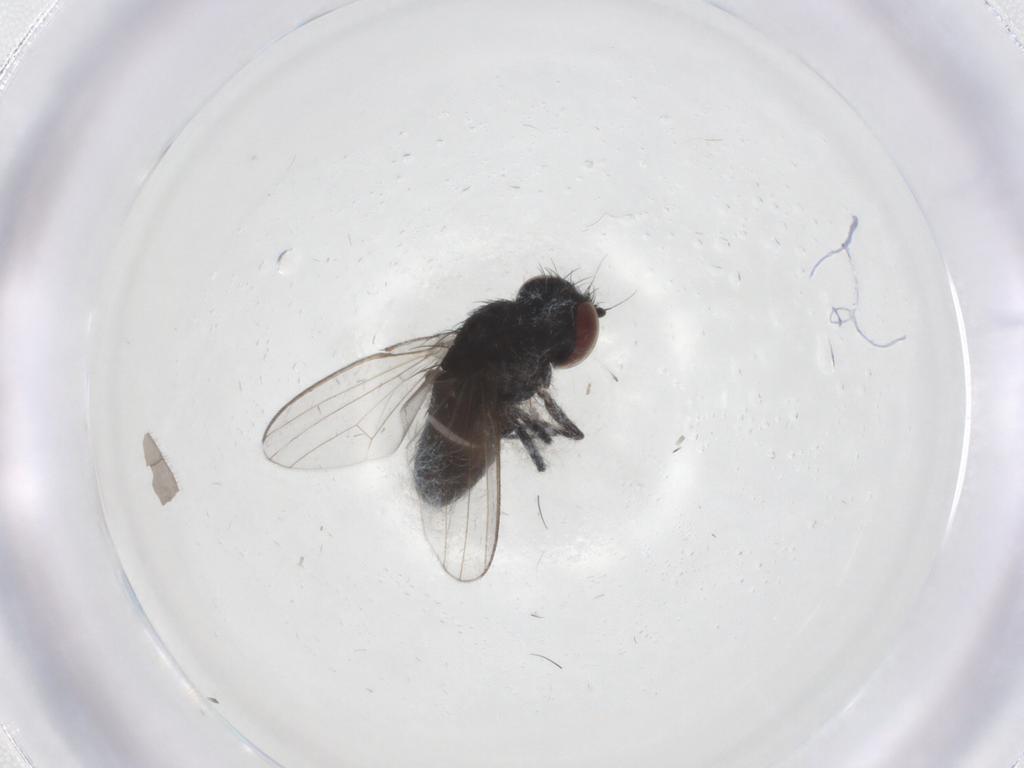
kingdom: Animalia
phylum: Arthropoda
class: Insecta
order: Diptera
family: Milichiidae
